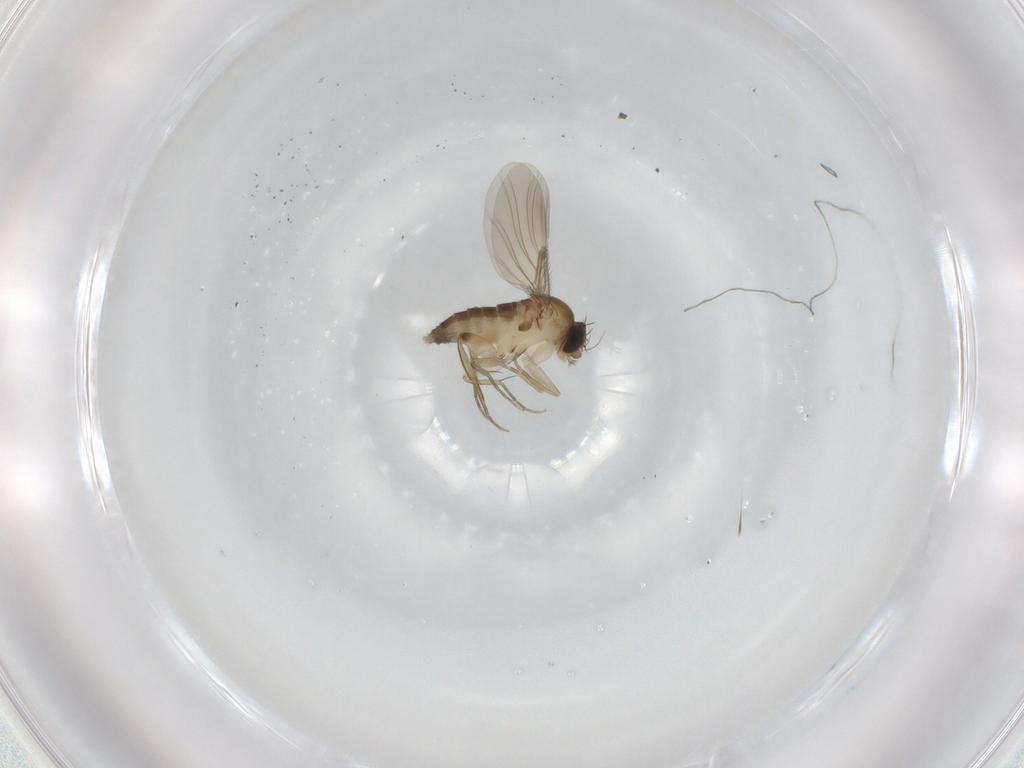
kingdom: Animalia
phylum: Arthropoda
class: Insecta
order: Diptera
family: Phoridae
